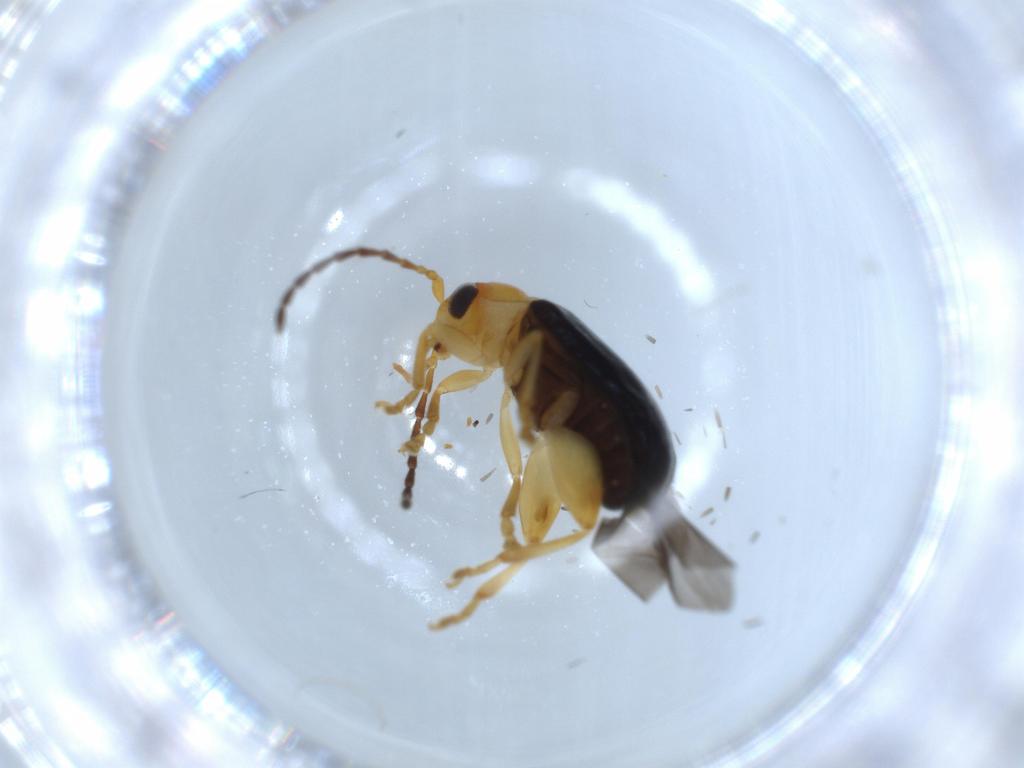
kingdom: Animalia
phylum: Arthropoda
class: Insecta
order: Coleoptera
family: Chrysomelidae
